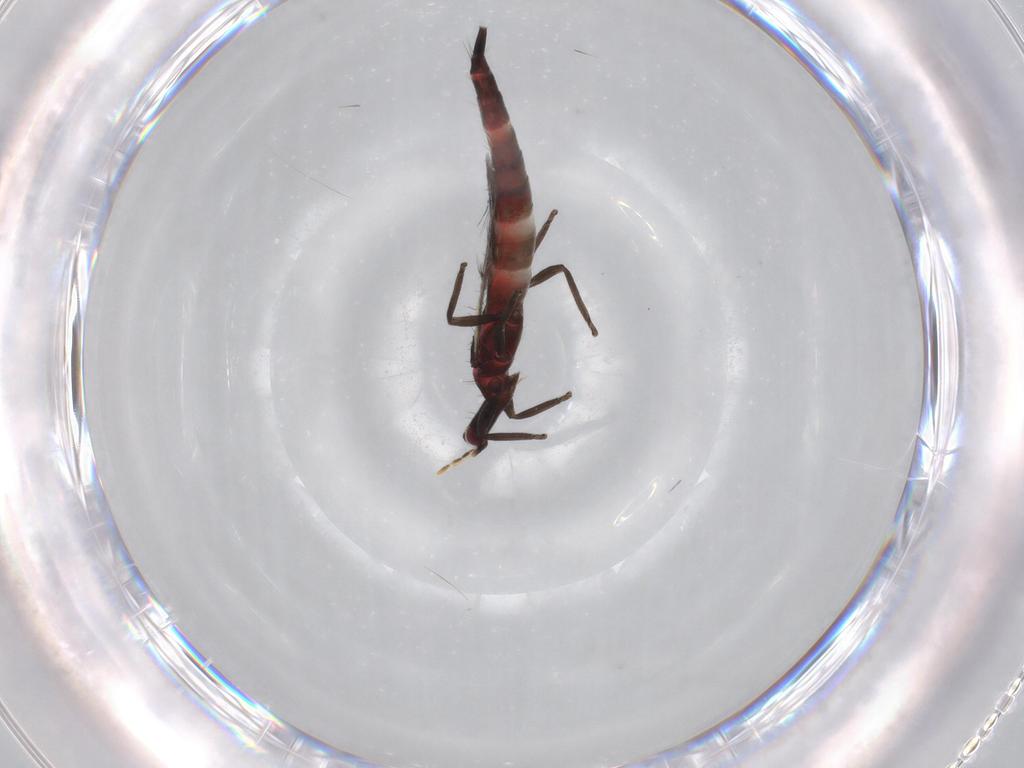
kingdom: Animalia
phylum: Arthropoda
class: Insecta
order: Thysanoptera
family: Phlaeothripidae
